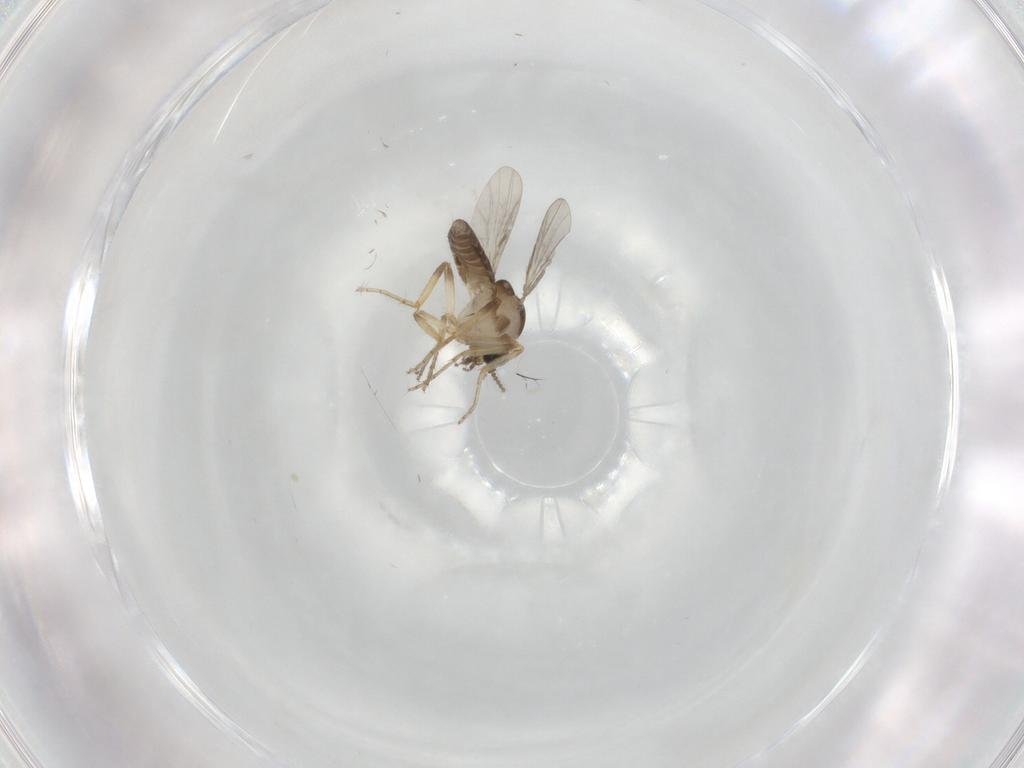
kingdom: Animalia
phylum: Arthropoda
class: Insecta
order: Diptera
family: Ceratopogonidae
